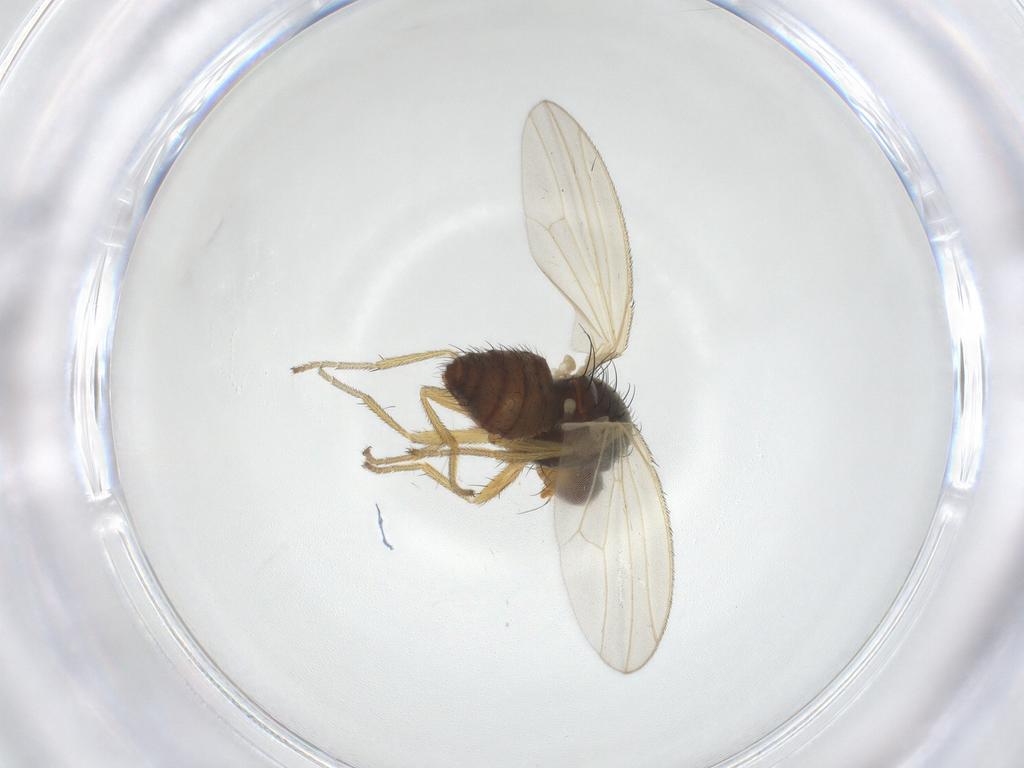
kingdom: Animalia
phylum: Arthropoda
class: Insecta
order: Diptera
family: Heleomyzidae
